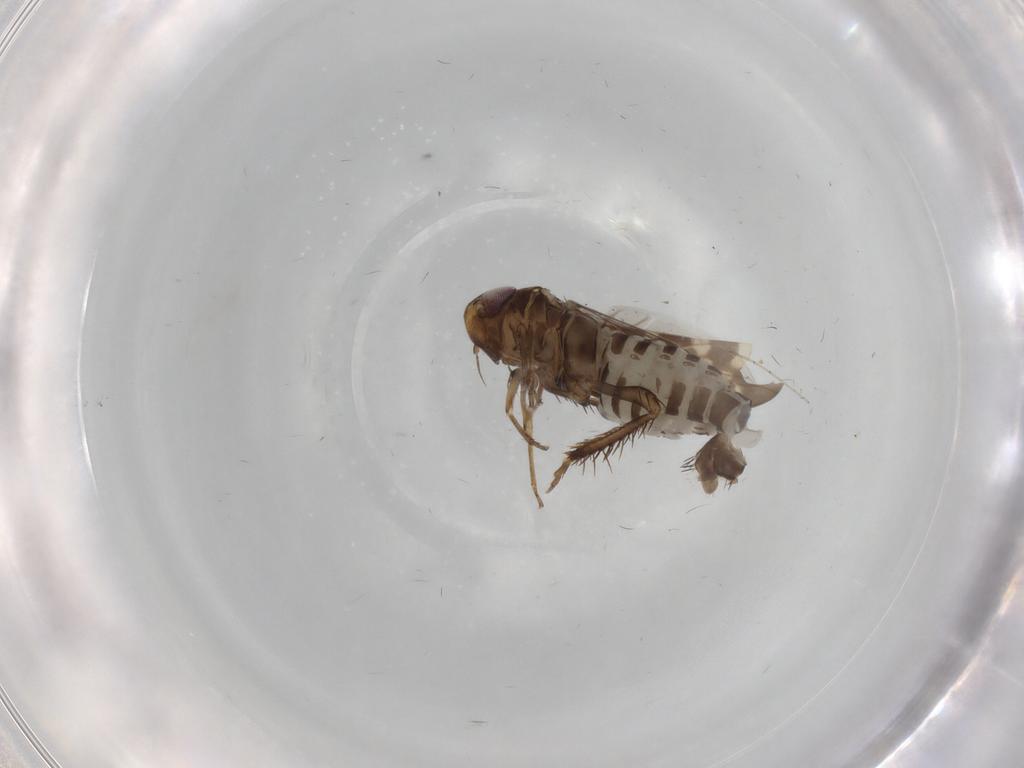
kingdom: Animalia
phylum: Arthropoda
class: Insecta
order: Hemiptera
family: Cicadellidae
